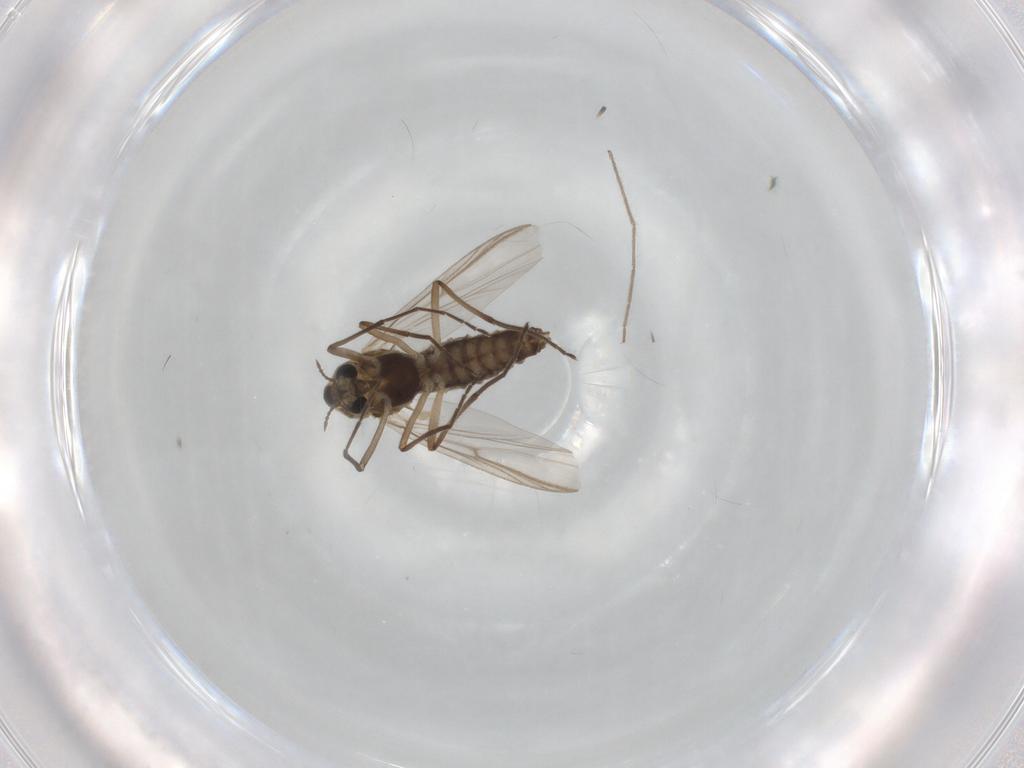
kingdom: Animalia
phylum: Arthropoda
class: Insecta
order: Diptera
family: Chironomidae
